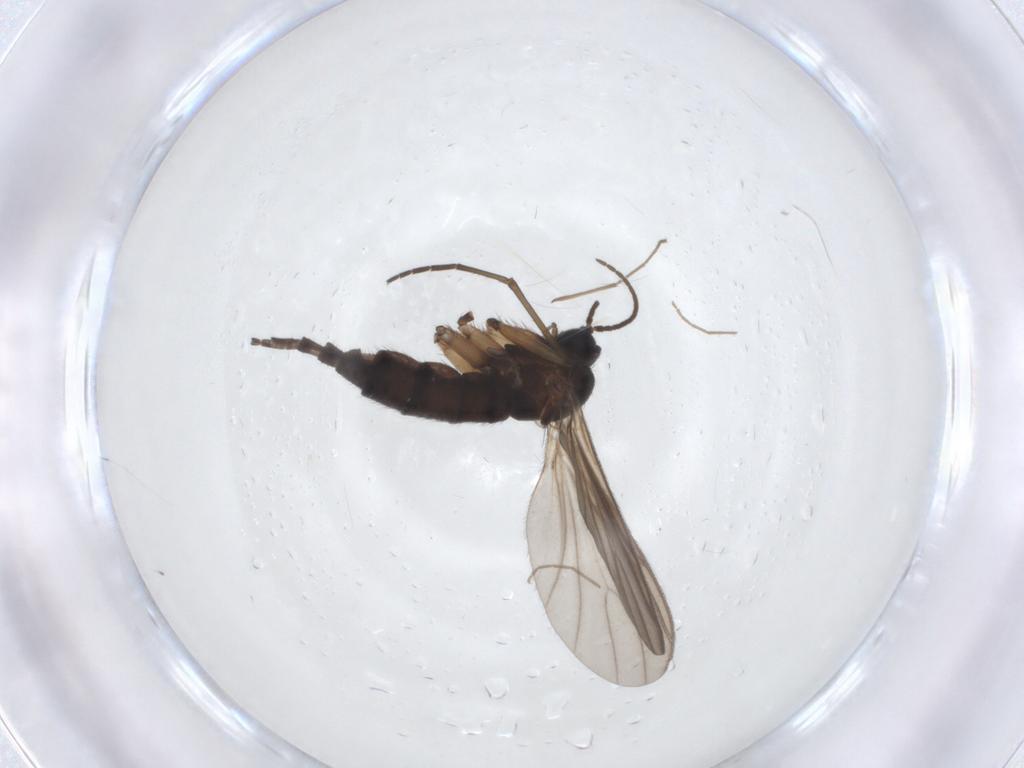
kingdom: Animalia
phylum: Arthropoda
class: Insecta
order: Diptera
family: Sciaridae
